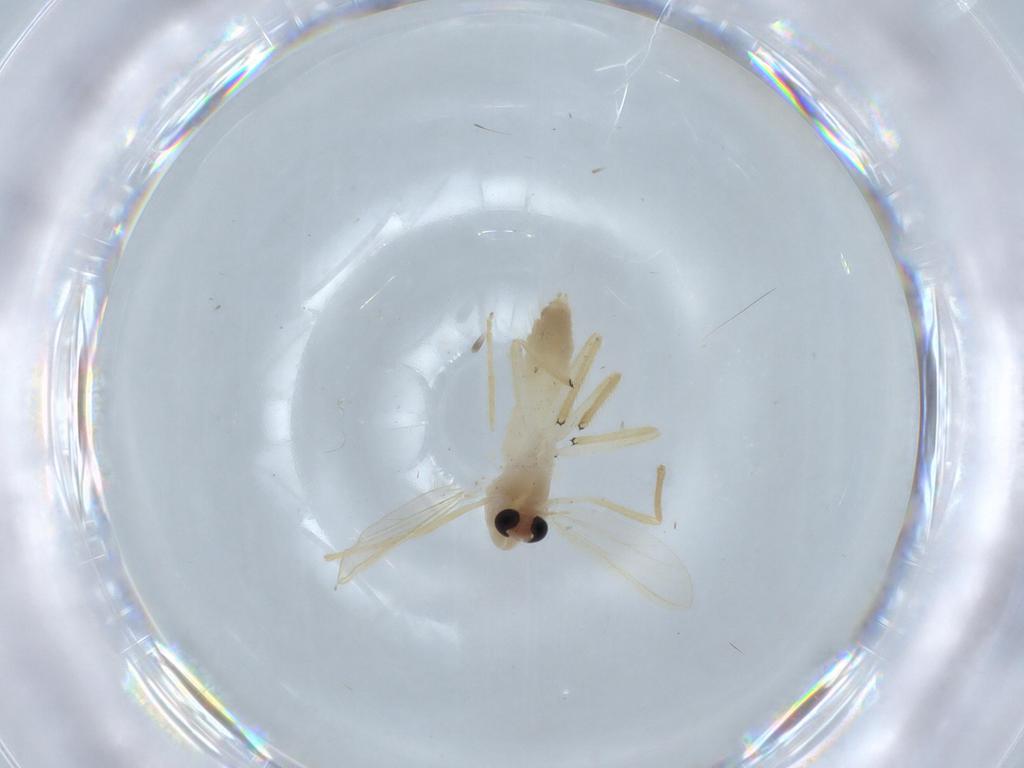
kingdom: Animalia
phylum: Arthropoda
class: Insecta
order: Diptera
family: Chironomidae
